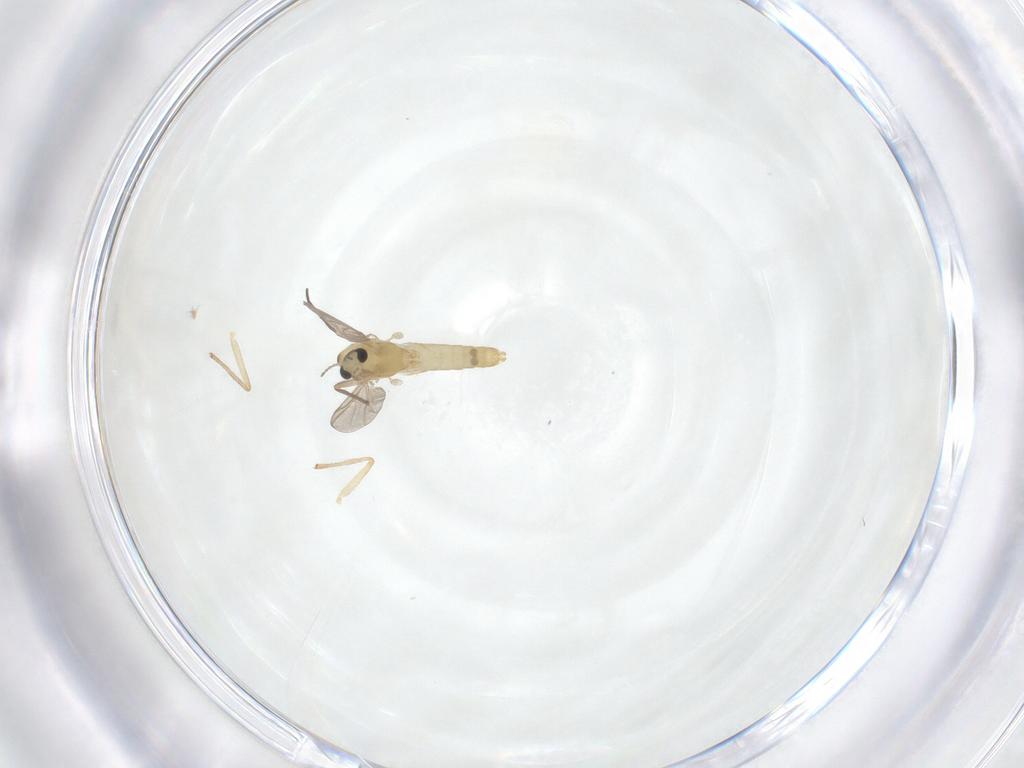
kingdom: Animalia
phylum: Arthropoda
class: Insecta
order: Diptera
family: Chironomidae
